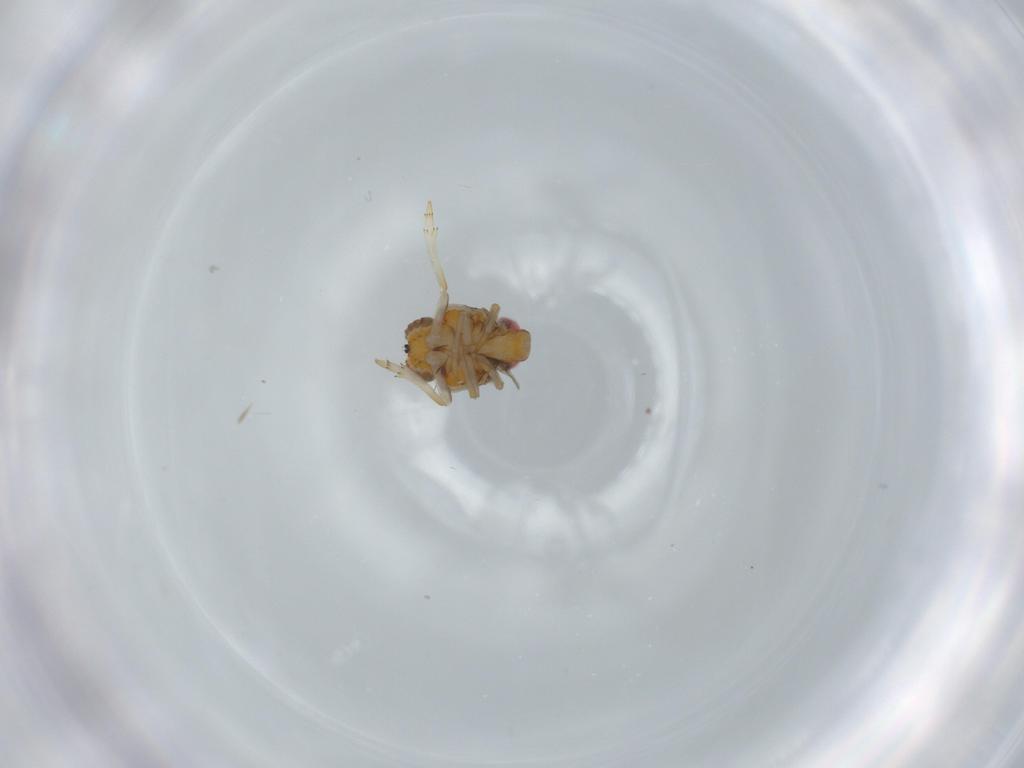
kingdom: Animalia
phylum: Arthropoda
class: Insecta
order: Hemiptera
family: Issidae
